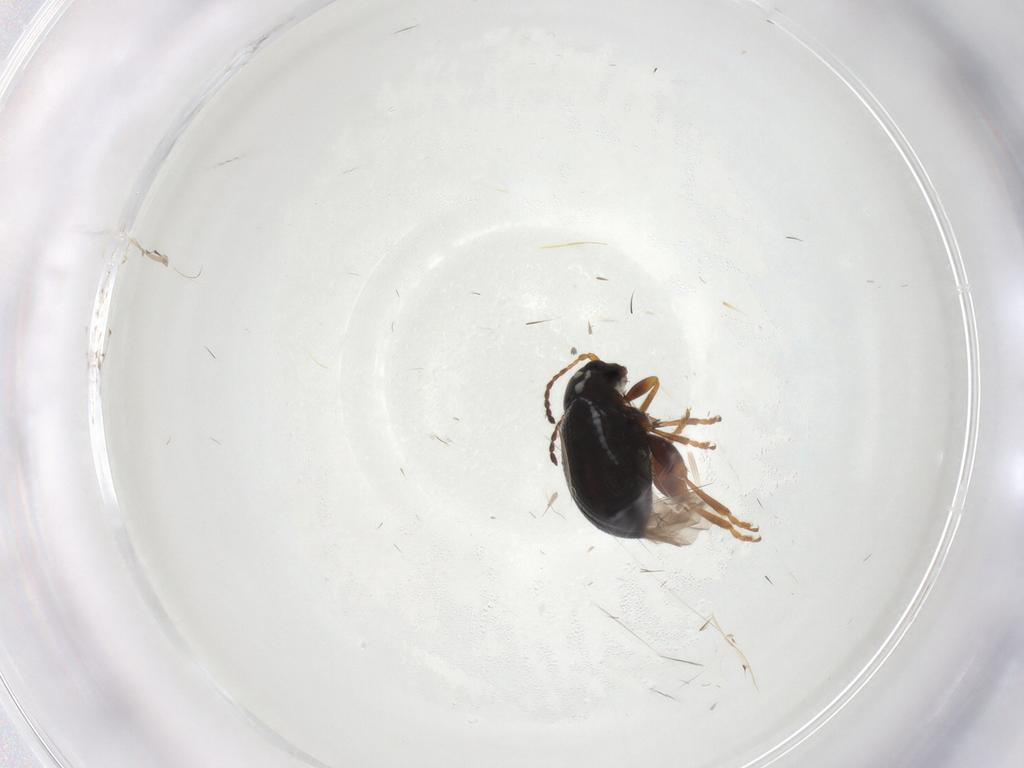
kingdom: Animalia
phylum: Arthropoda
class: Insecta
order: Coleoptera
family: Chrysomelidae
